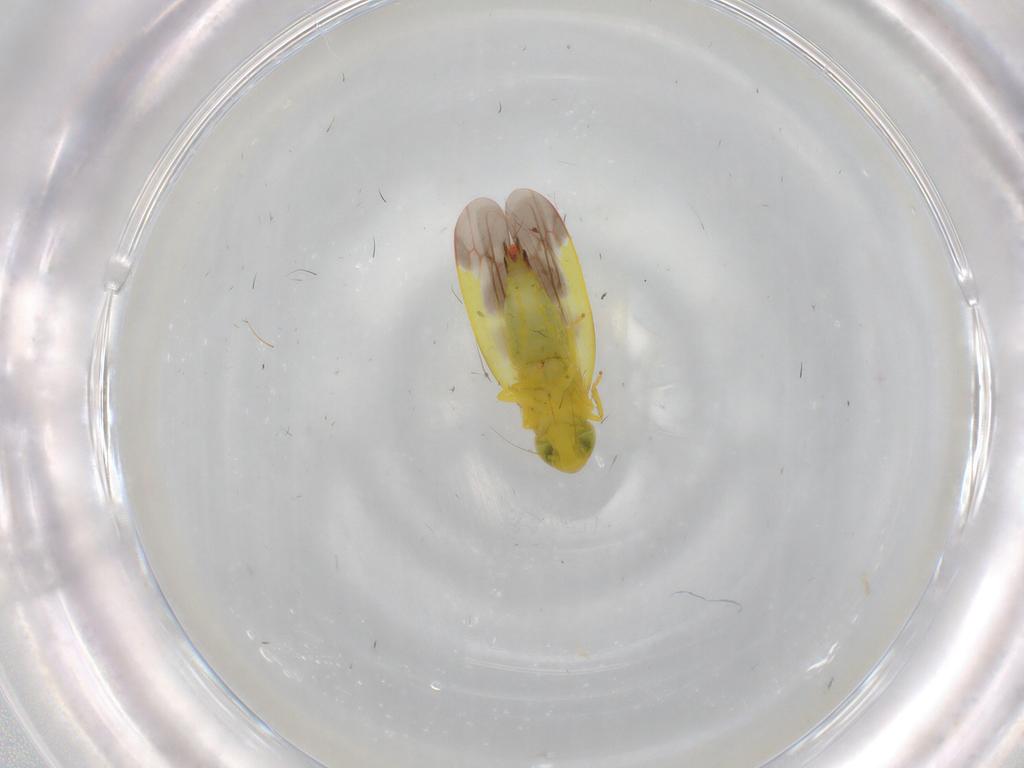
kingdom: Animalia
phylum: Arthropoda
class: Insecta
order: Hemiptera
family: Cicadellidae
